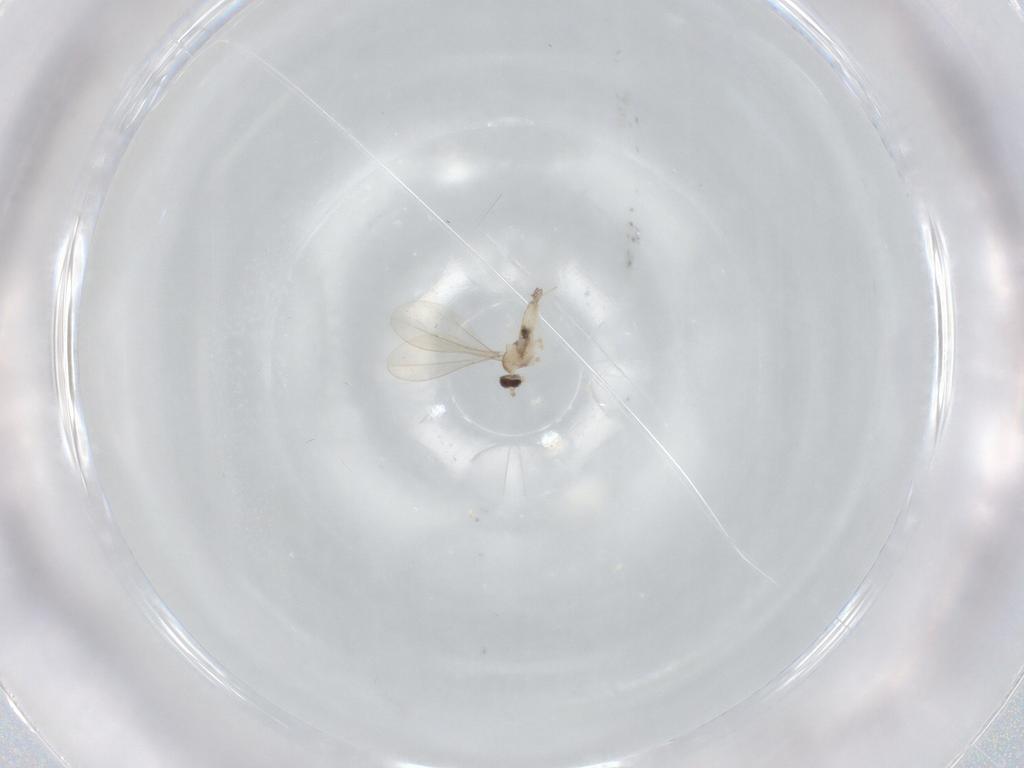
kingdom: Animalia
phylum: Arthropoda
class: Insecta
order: Diptera
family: Cecidomyiidae
